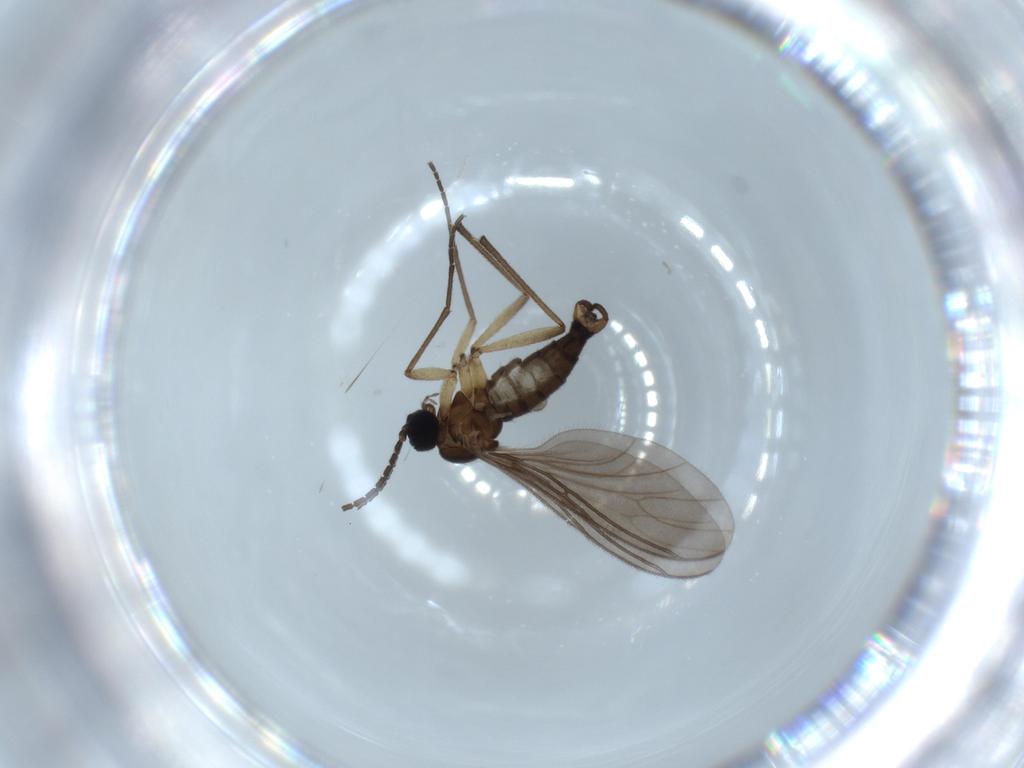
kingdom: Animalia
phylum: Arthropoda
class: Insecta
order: Diptera
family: Sciaridae
